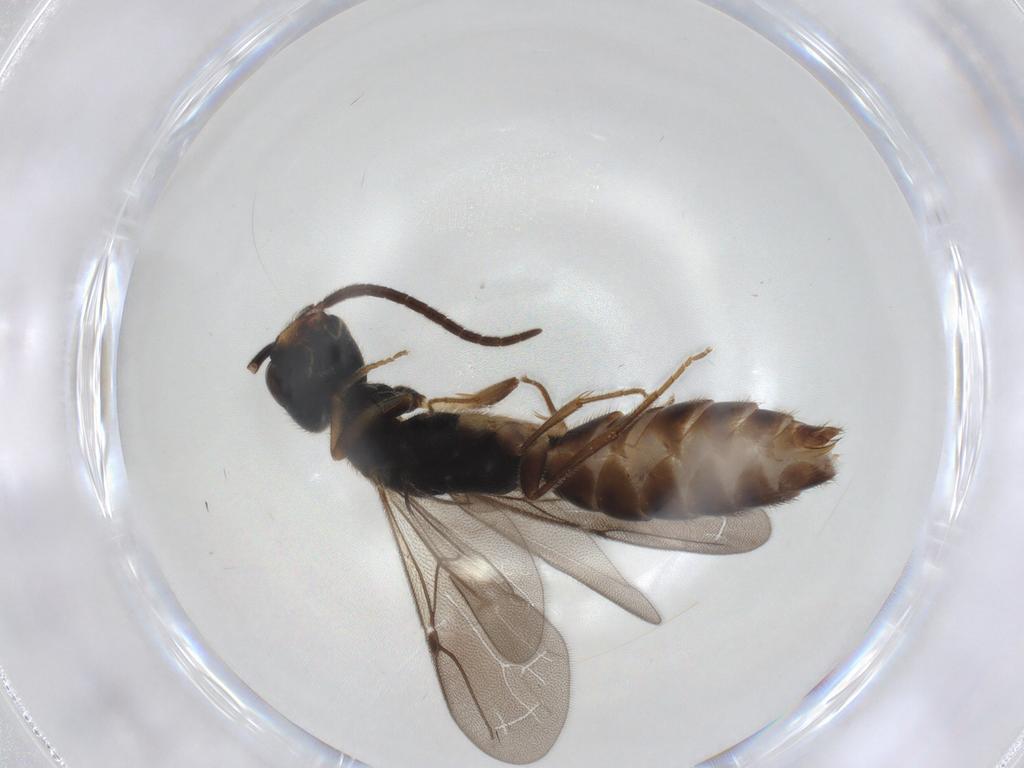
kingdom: Animalia
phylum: Arthropoda
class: Insecta
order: Hymenoptera
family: Bethylidae
